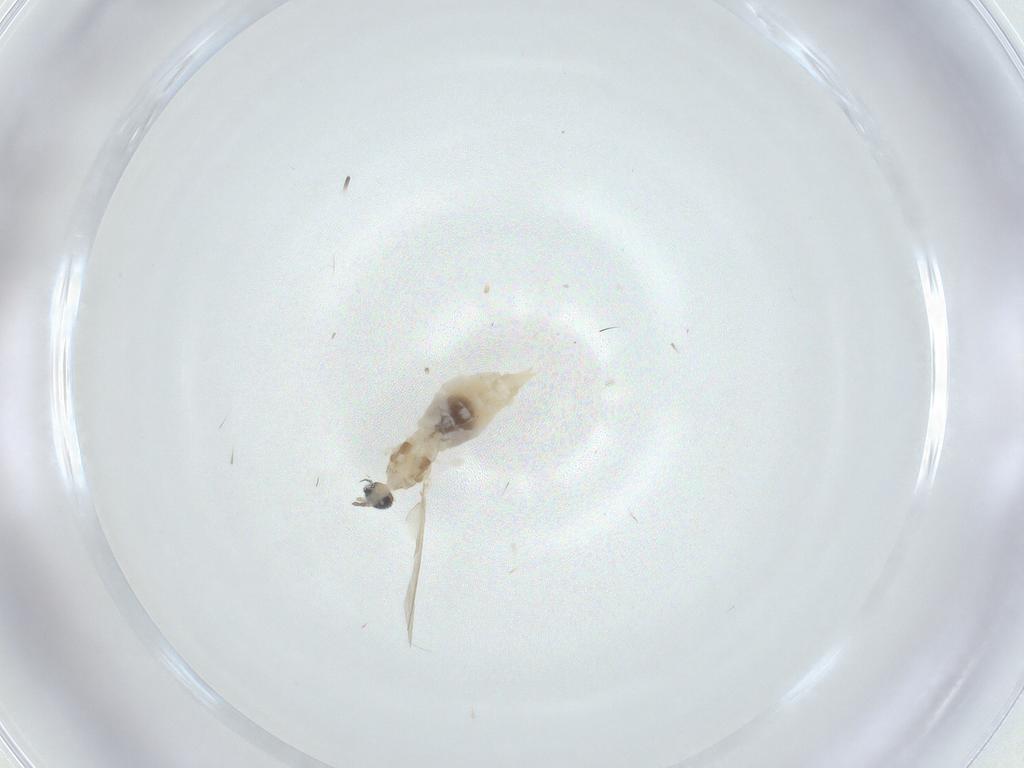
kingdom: Animalia
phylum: Arthropoda
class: Insecta
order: Diptera
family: Cecidomyiidae
